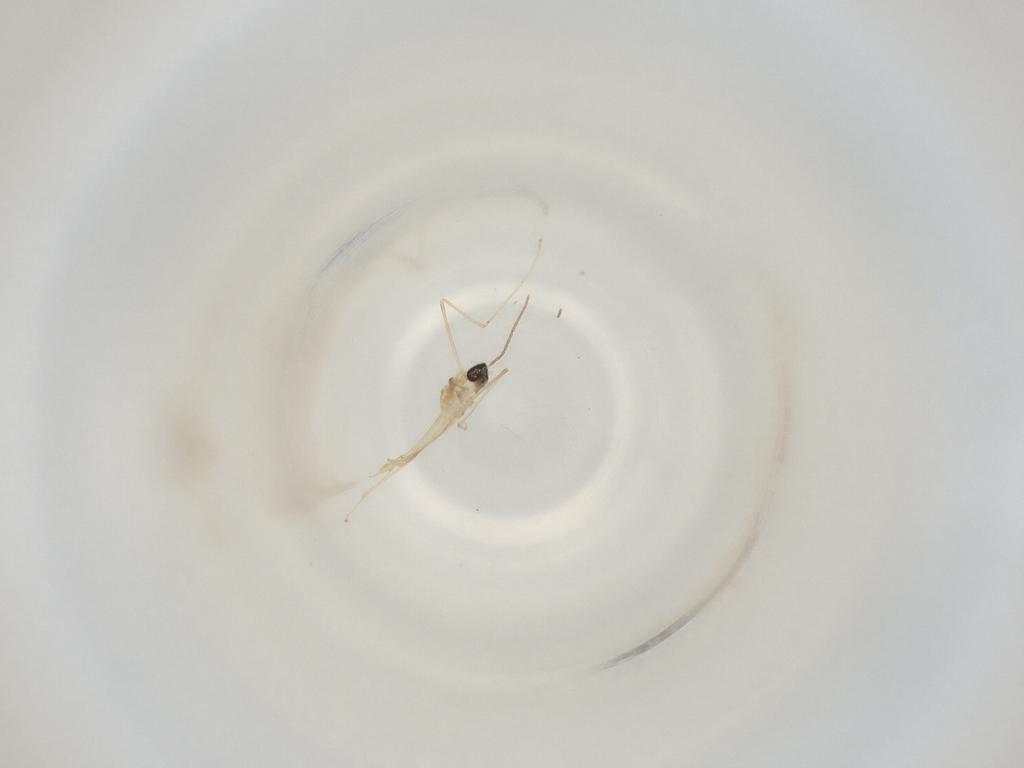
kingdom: Animalia
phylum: Arthropoda
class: Insecta
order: Diptera
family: Cecidomyiidae
